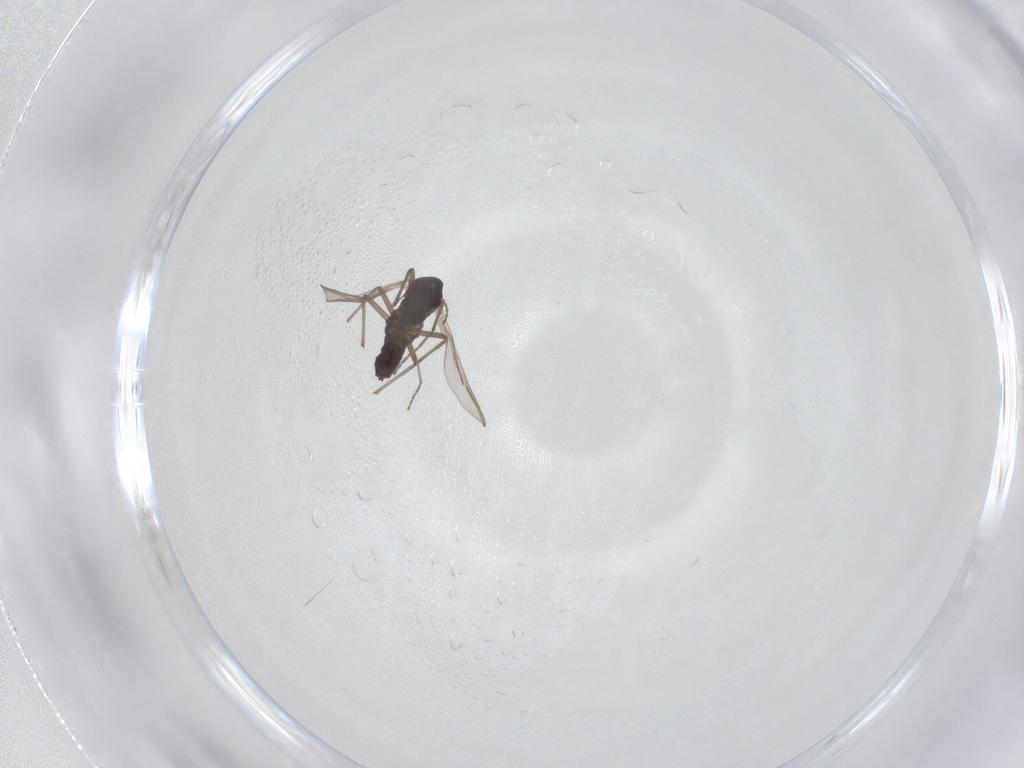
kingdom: Animalia
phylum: Arthropoda
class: Insecta
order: Diptera
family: Chironomidae
